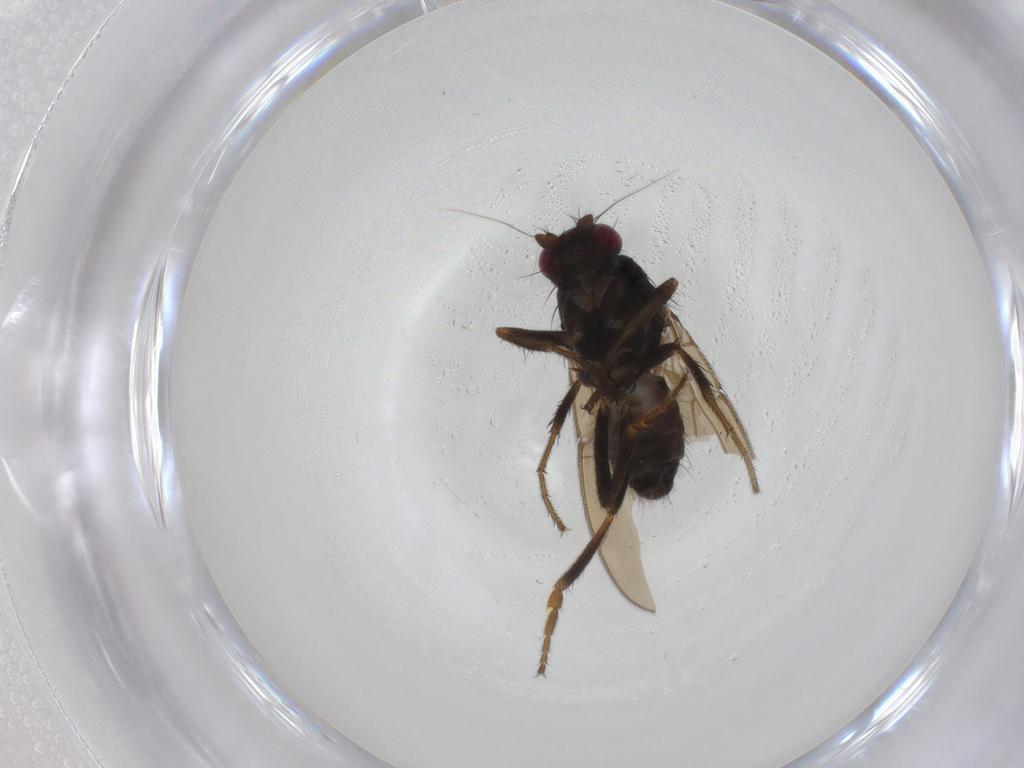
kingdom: Animalia
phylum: Arthropoda
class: Insecta
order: Diptera
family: Sphaeroceridae
